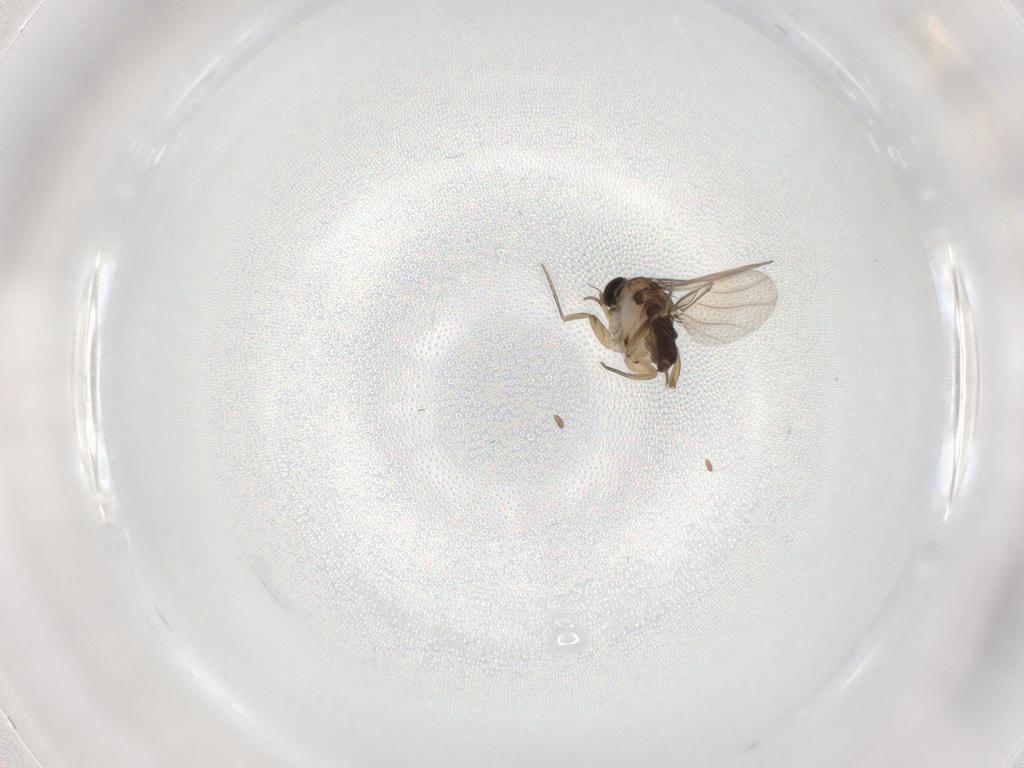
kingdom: Animalia
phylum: Arthropoda
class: Insecta
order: Diptera
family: Phoridae
